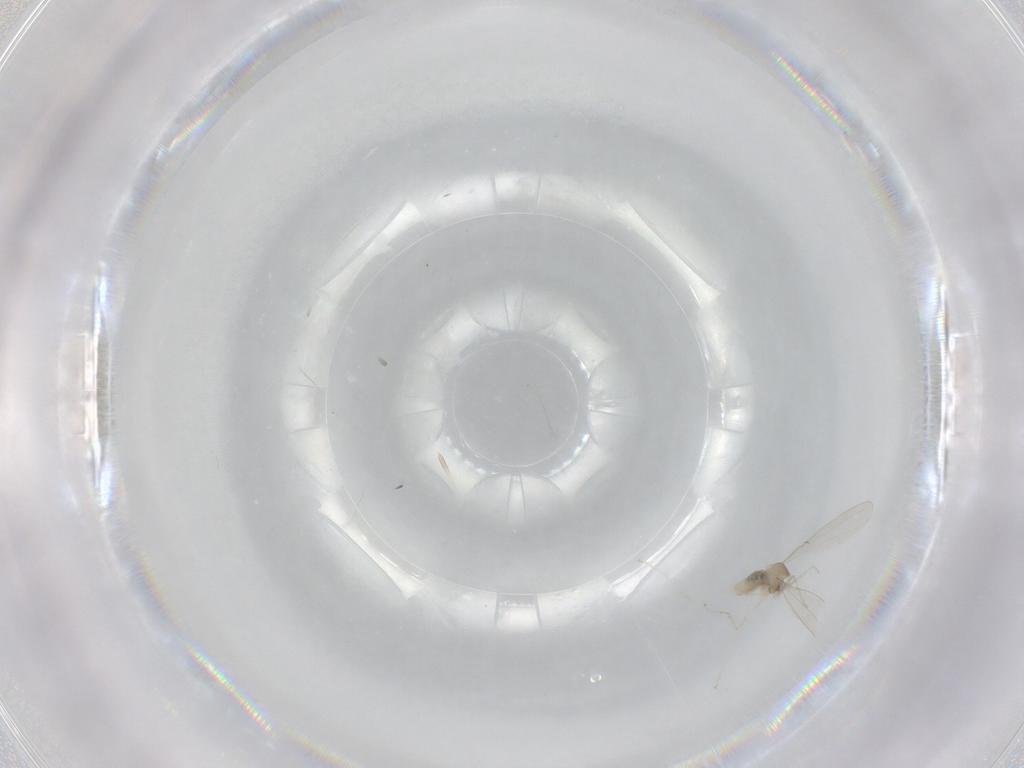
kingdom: Animalia
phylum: Arthropoda
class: Insecta
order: Diptera
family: Cecidomyiidae
